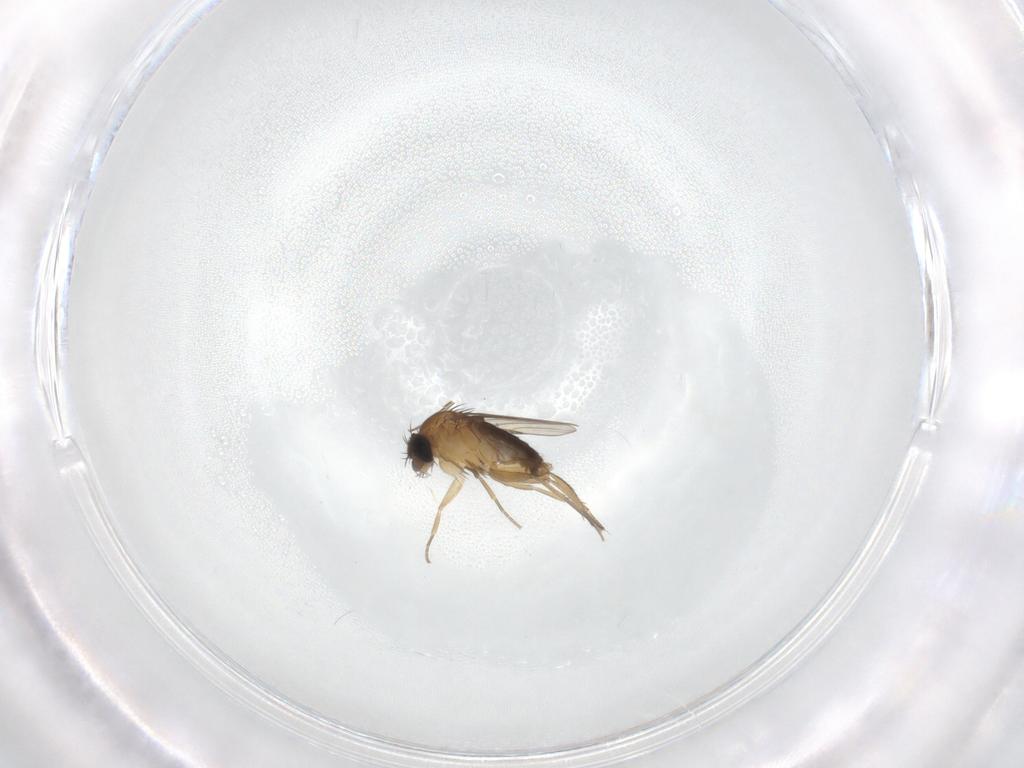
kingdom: Animalia
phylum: Arthropoda
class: Insecta
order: Diptera
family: Phoridae
